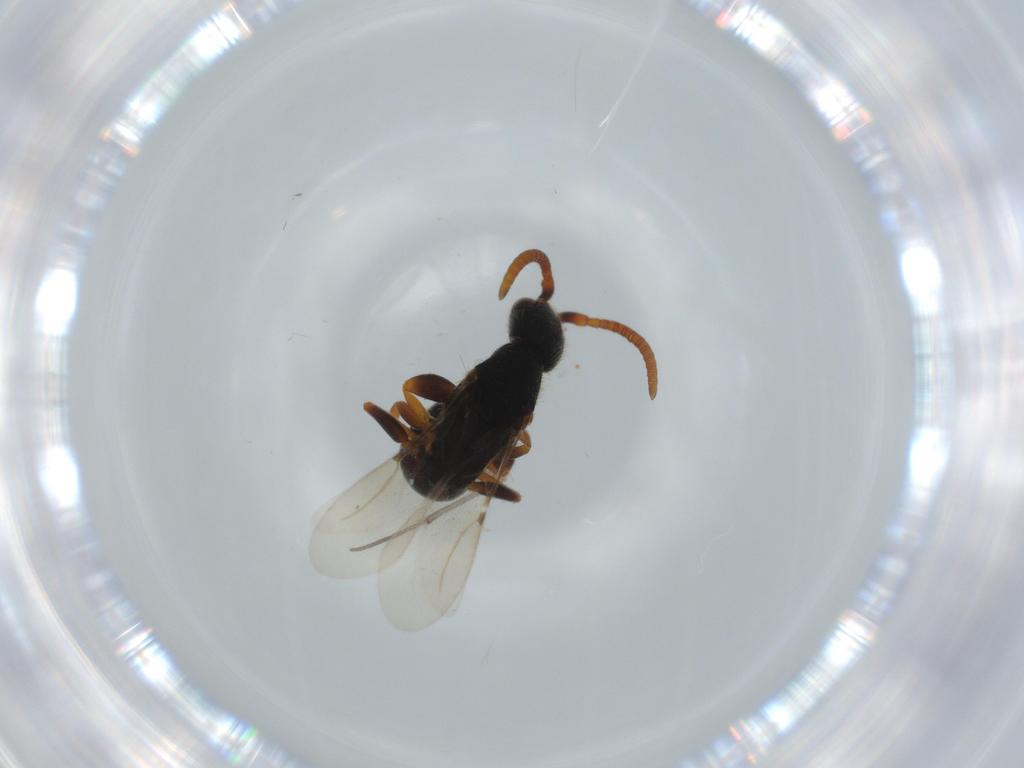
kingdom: Animalia
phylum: Arthropoda
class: Insecta
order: Hymenoptera
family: Bethylidae
